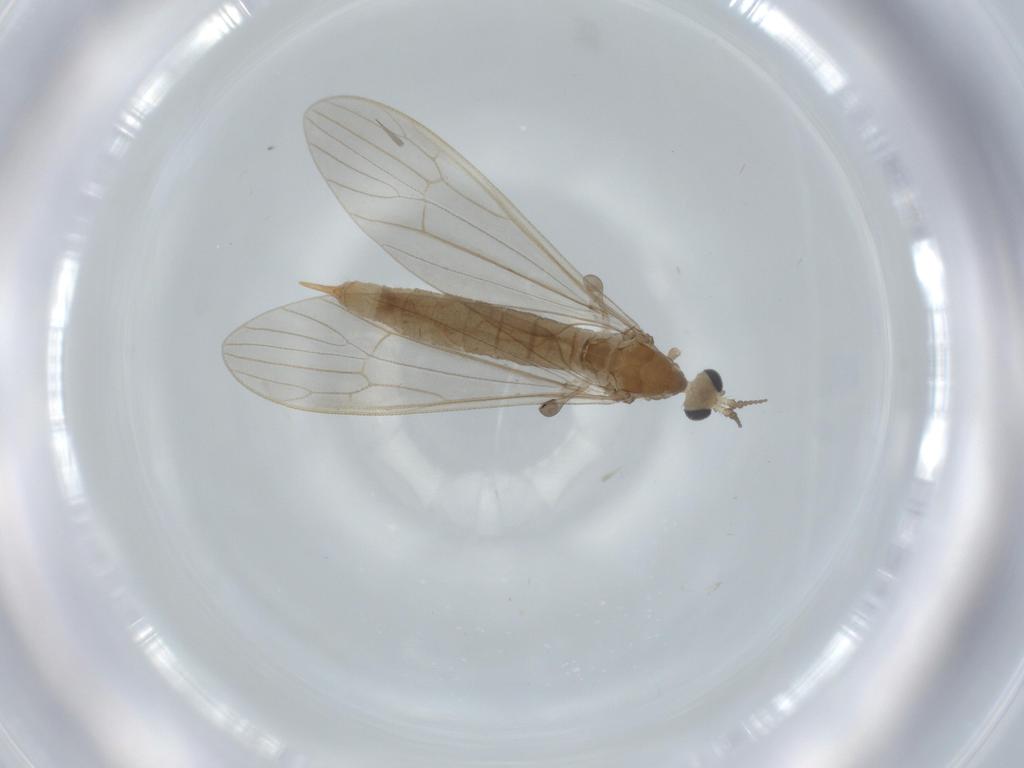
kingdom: Animalia
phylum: Arthropoda
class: Insecta
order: Diptera
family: Limoniidae
